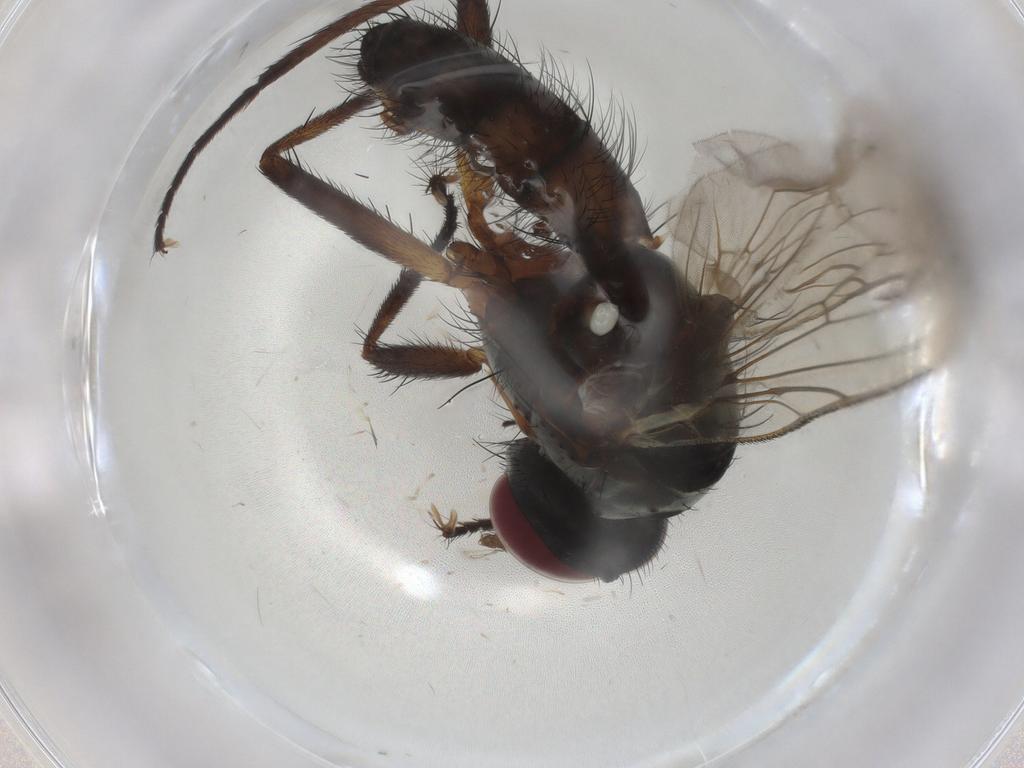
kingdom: Animalia
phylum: Arthropoda
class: Insecta
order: Diptera
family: Anthomyiidae
